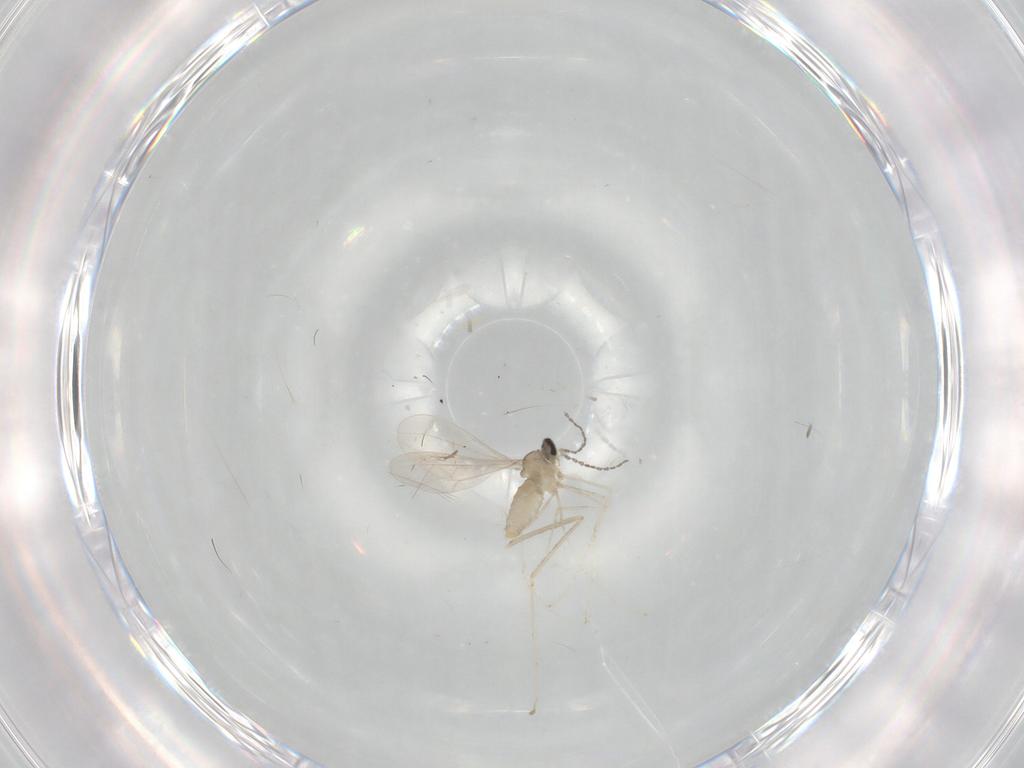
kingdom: Animalia
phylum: Arthropoda
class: Insecta
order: Diptera
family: Cecidomyiidae
